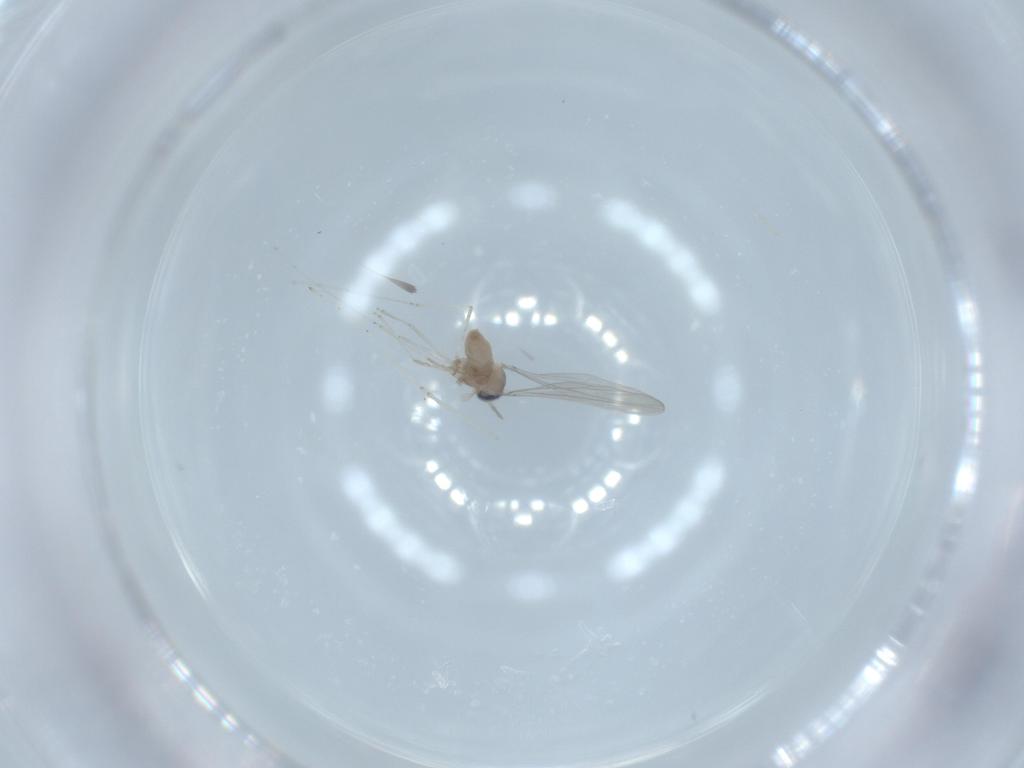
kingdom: Animalia
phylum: Arthropoda
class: Insecta
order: Diptera
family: Cecidomyiidae
